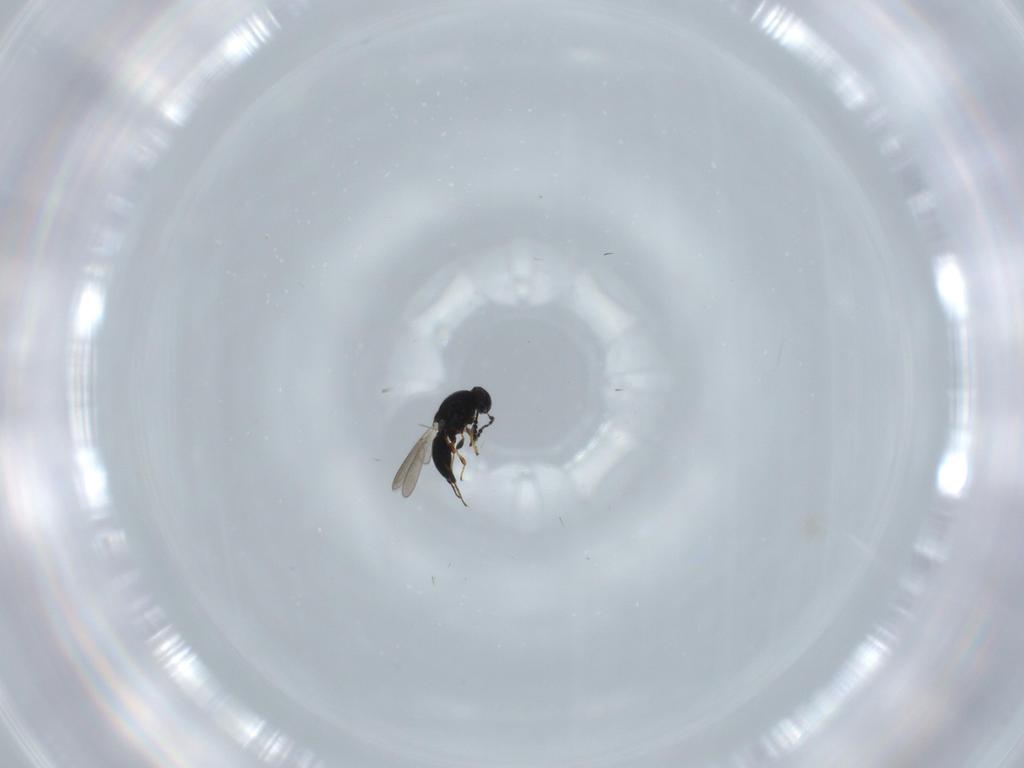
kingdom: Animalia
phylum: Arthropoda
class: Insecta
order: Hymenoptera
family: Platygastridae
